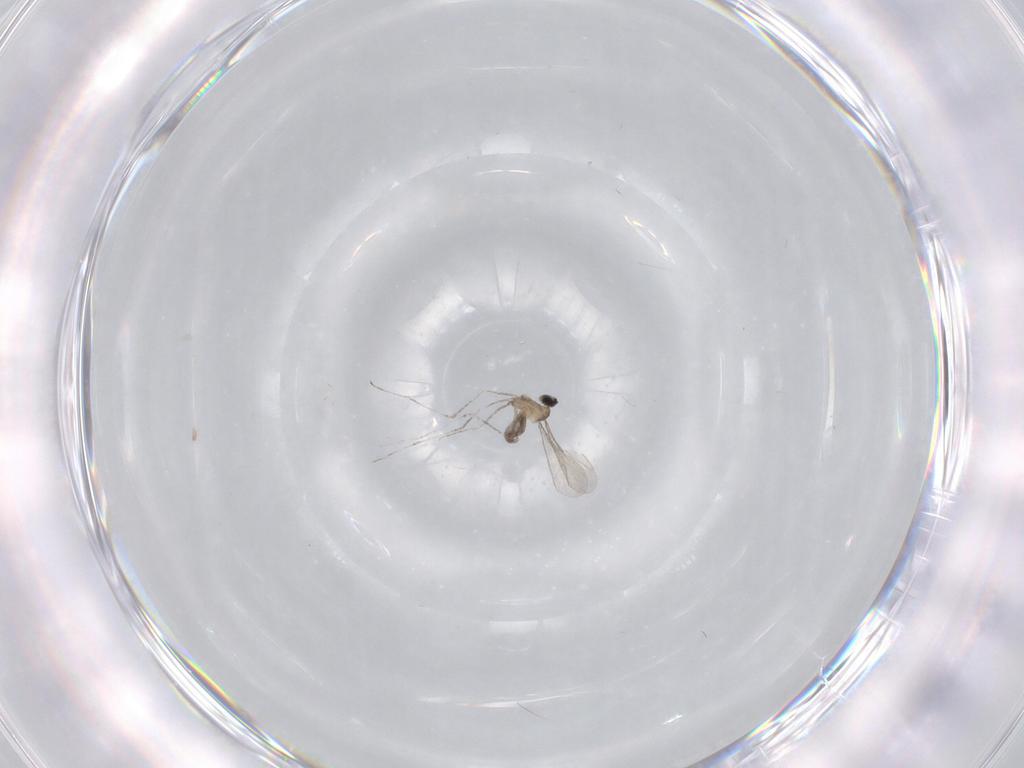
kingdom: Animalia
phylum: Arthropoda
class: Insecta
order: Diptera
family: Cecidomyiidae
